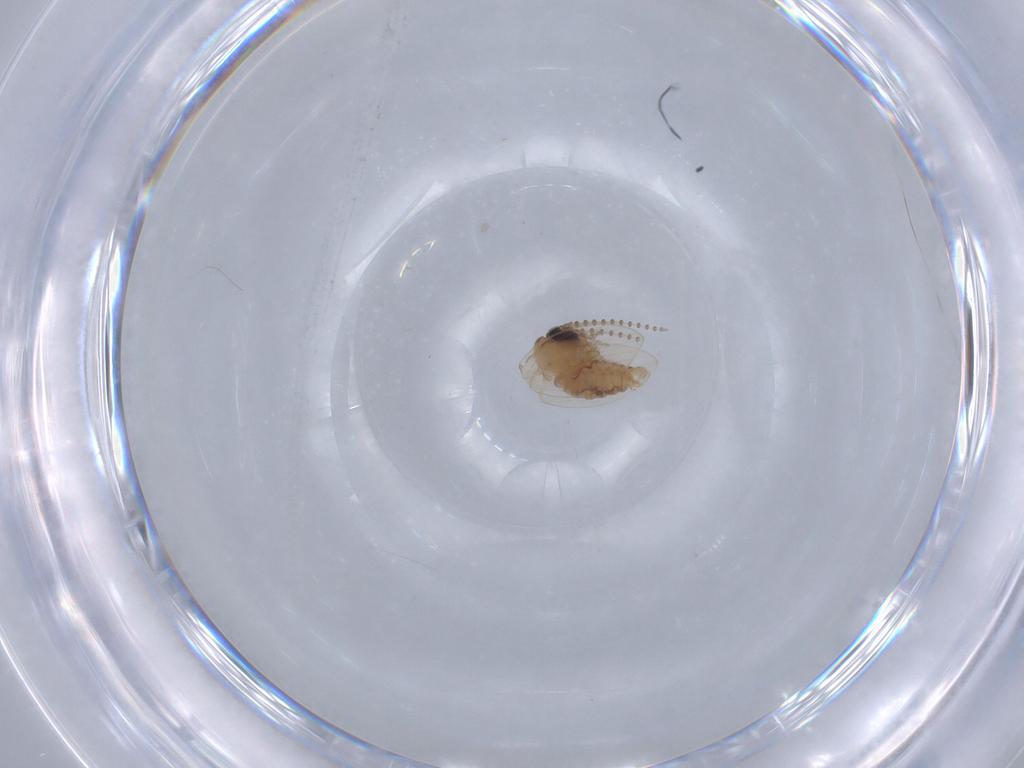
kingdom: Animalia
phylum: Arthropoda
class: Insecta
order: Diptera
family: Psychodidae
